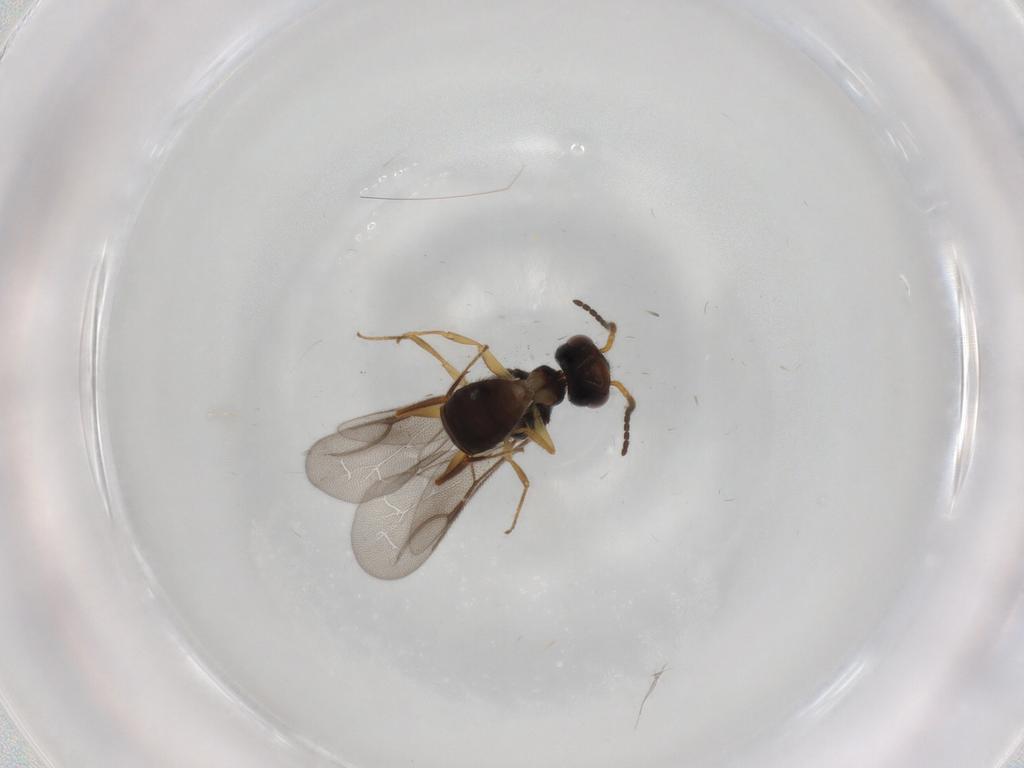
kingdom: Animalia
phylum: Arthropoda
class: Insecta
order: Hymenoptera
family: Bethylidae
